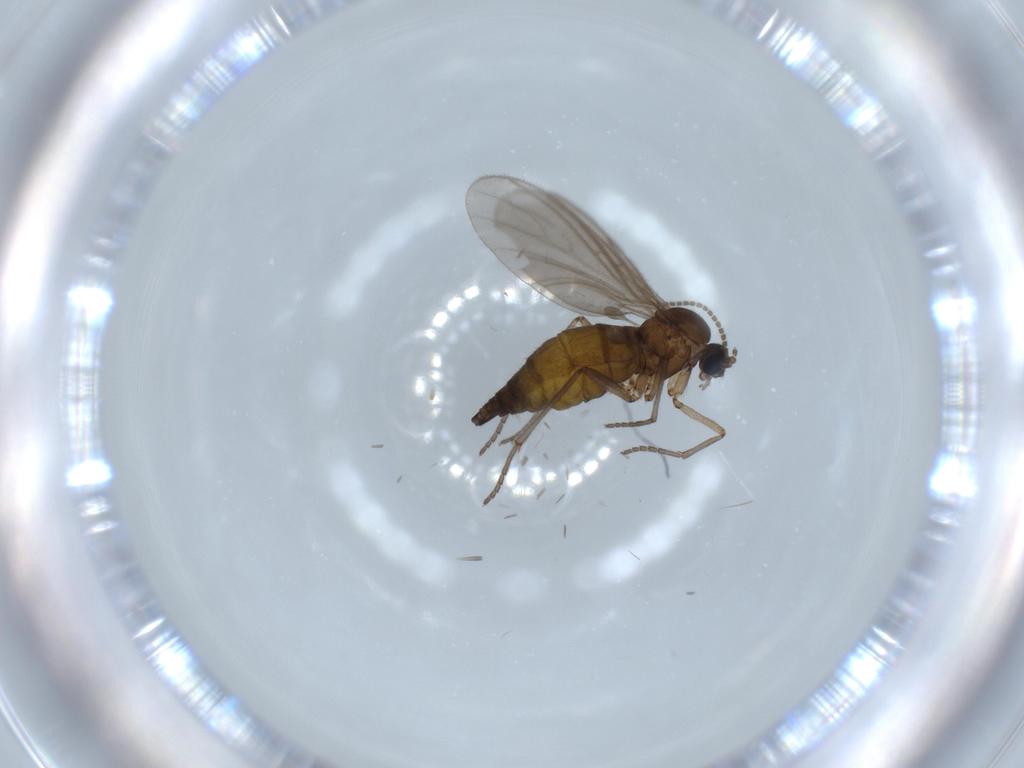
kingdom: Animalia
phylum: Arthropoda
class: Insecta
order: Diptera
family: Sciaridae
